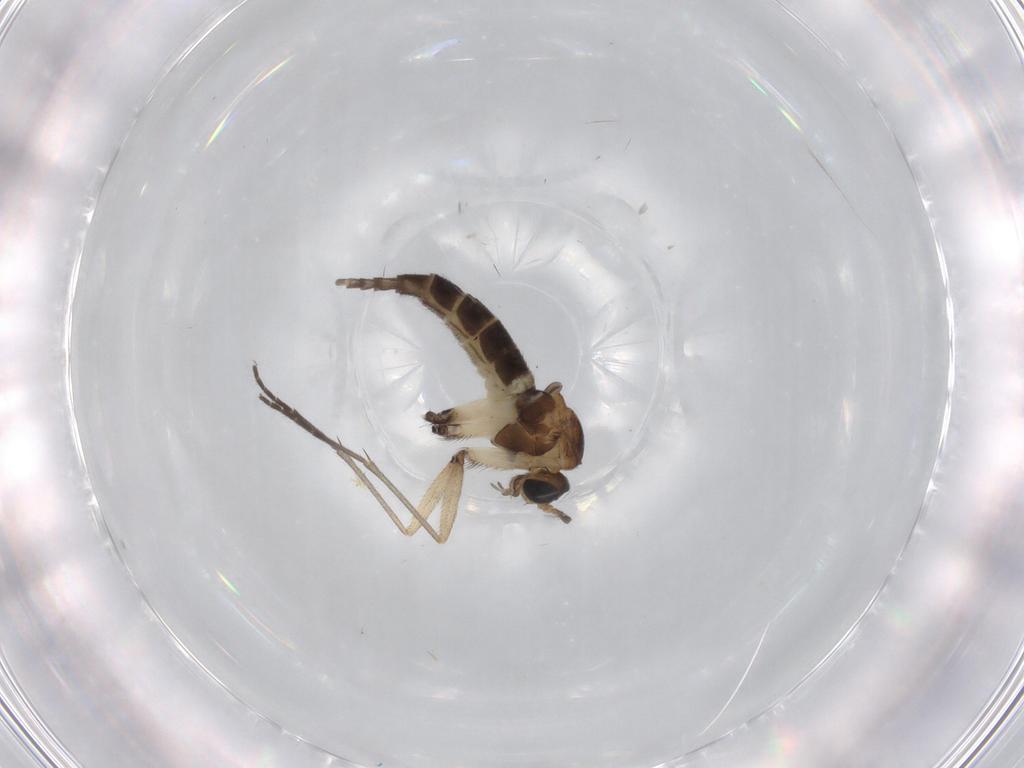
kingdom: Animalia
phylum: Arthropoda
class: Insecta
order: Diptera
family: Sciaridae
